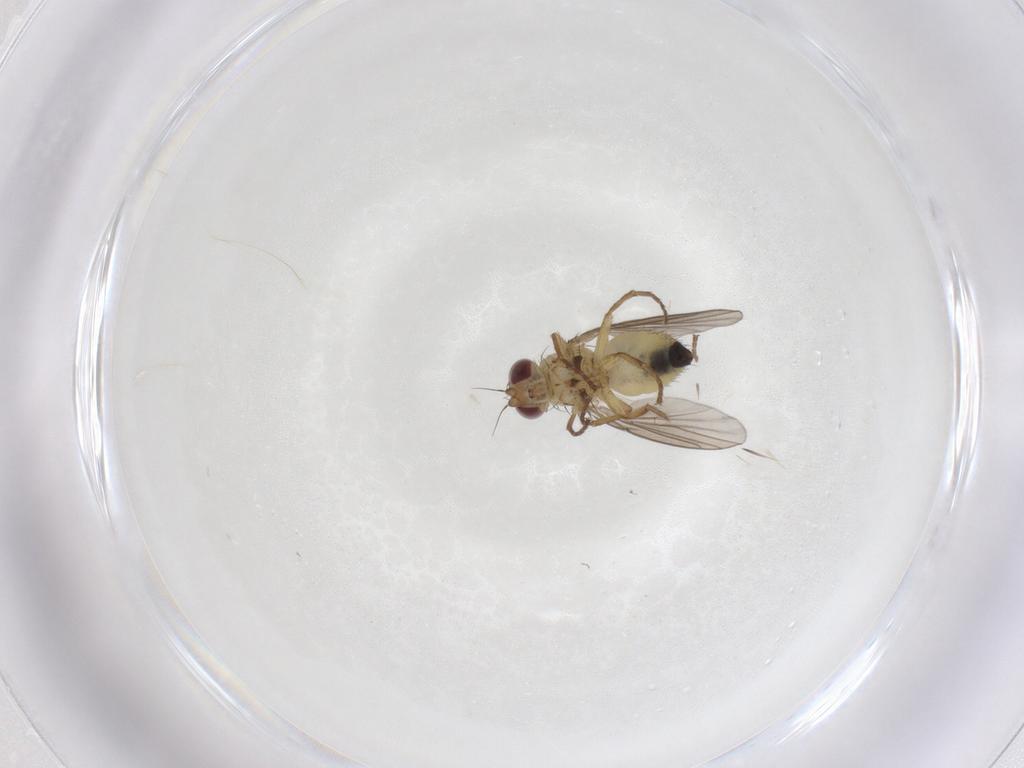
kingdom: Animalia
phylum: Arthropoda
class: Insecta
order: Diptera
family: Agromyzidae
